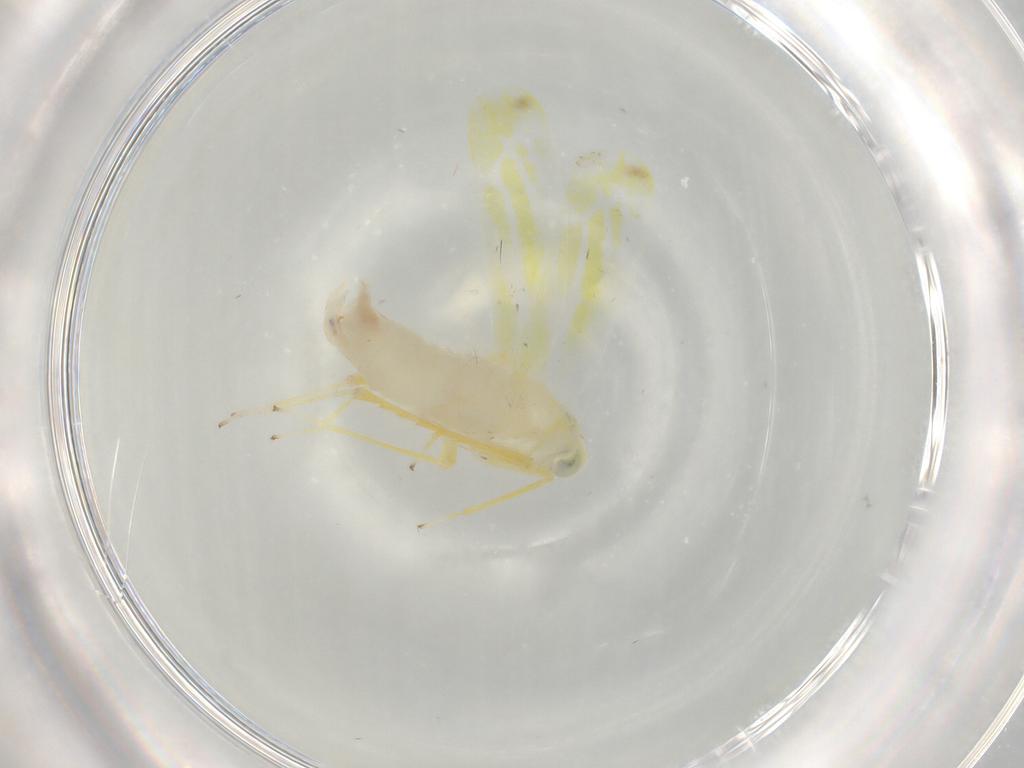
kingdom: Animalia
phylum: Arthropoda
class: Insecta
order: Hemiptera
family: Cicadellidae
